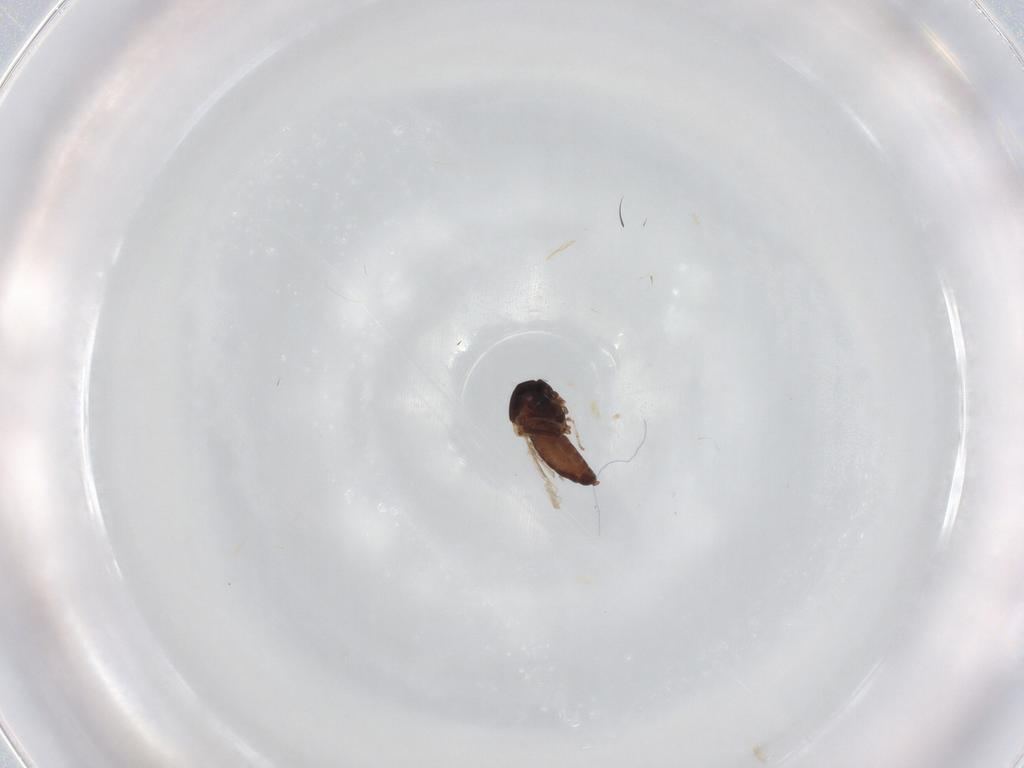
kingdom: Animalia
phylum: Arthropoda
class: Insecta
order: Diptera
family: Ceratopogonidae
